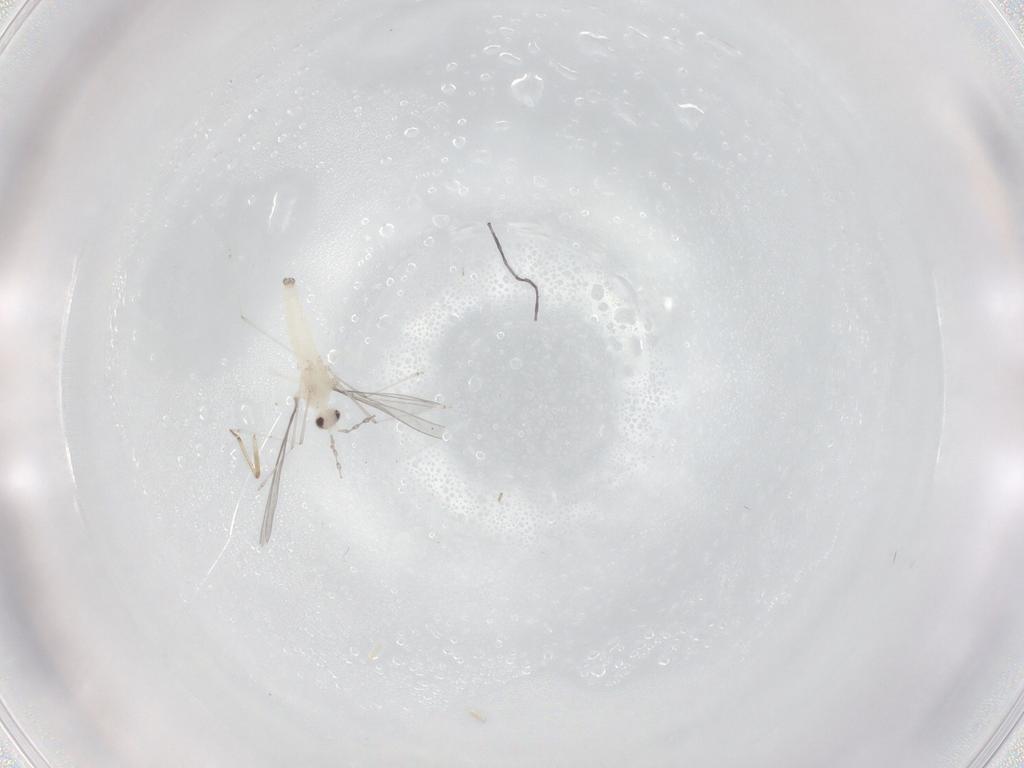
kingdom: Animalia
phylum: Arthropoda
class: Insecta
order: Diptera
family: Cecidomyiidae
